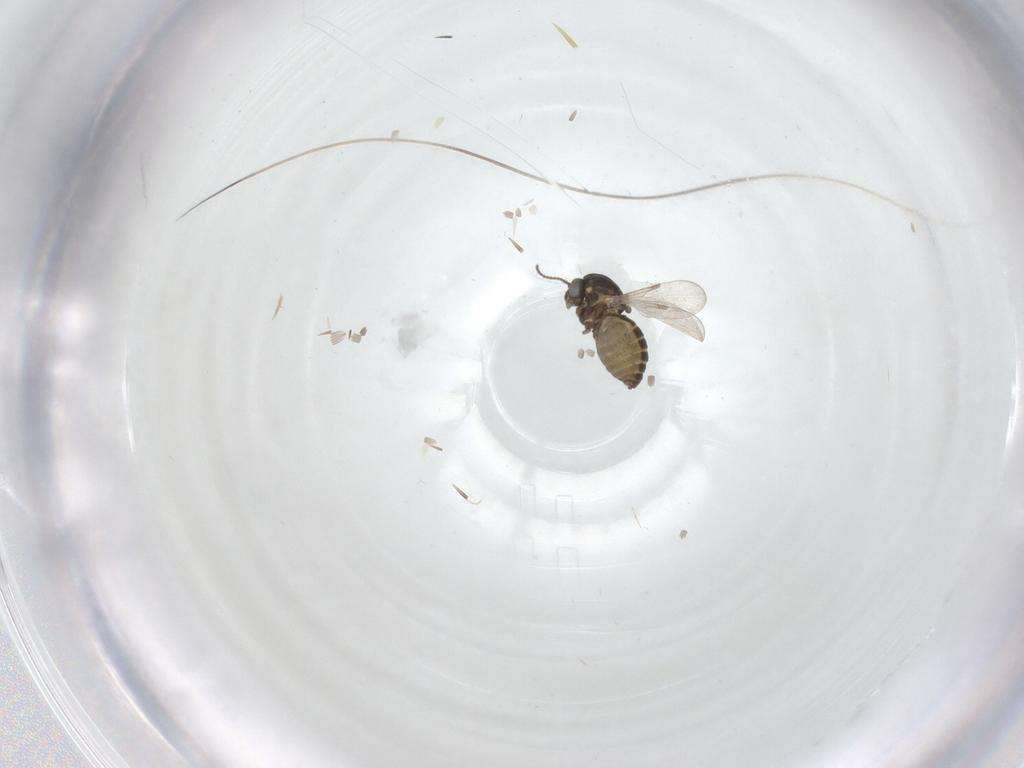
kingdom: Animalia
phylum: Arthropoda
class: Insecta
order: Diptera
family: Ceratopogonidae
